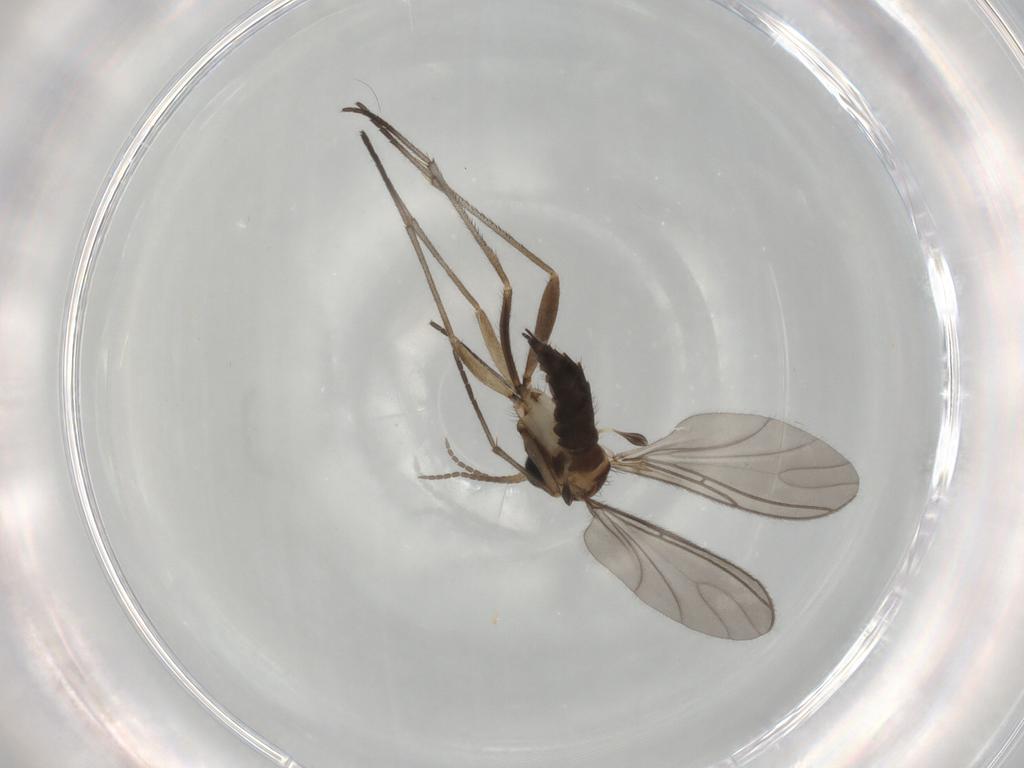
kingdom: Animalia
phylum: Arthropoda
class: Insecta
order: Diptera
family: Sciaridae
